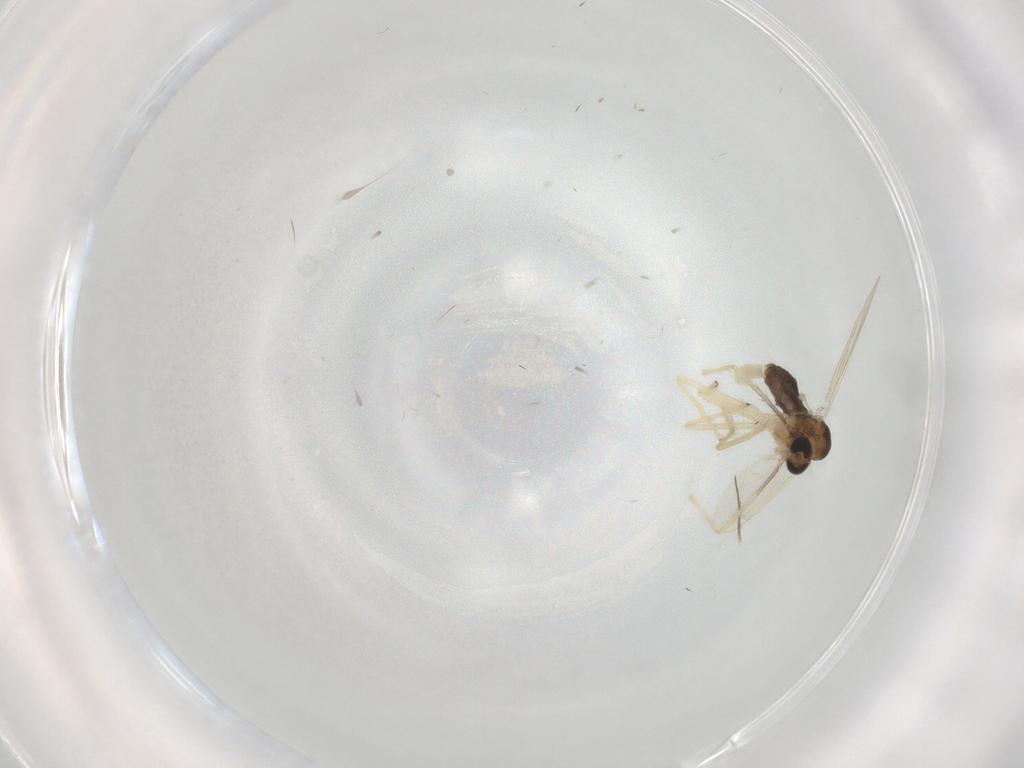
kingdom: Animalia
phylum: Arthropoda
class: Insecta
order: Diptera
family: Chironomidae
